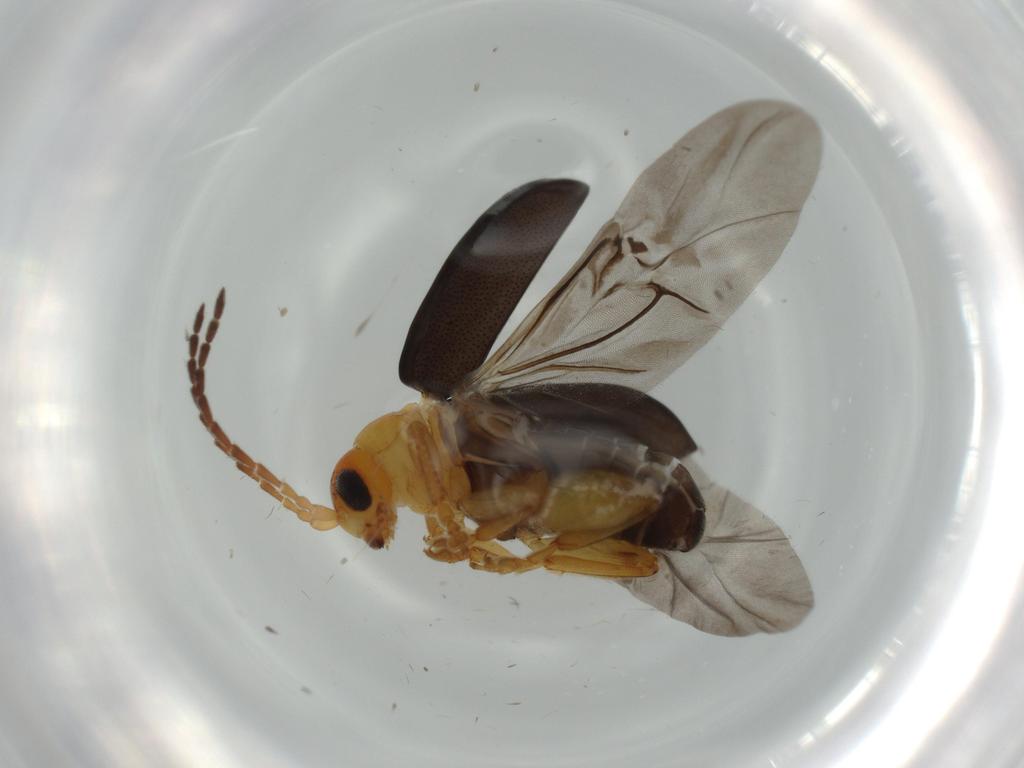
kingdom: Animalia
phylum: Arthropoda
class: Insecta
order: Coleoptera
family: Chrysomelidae
